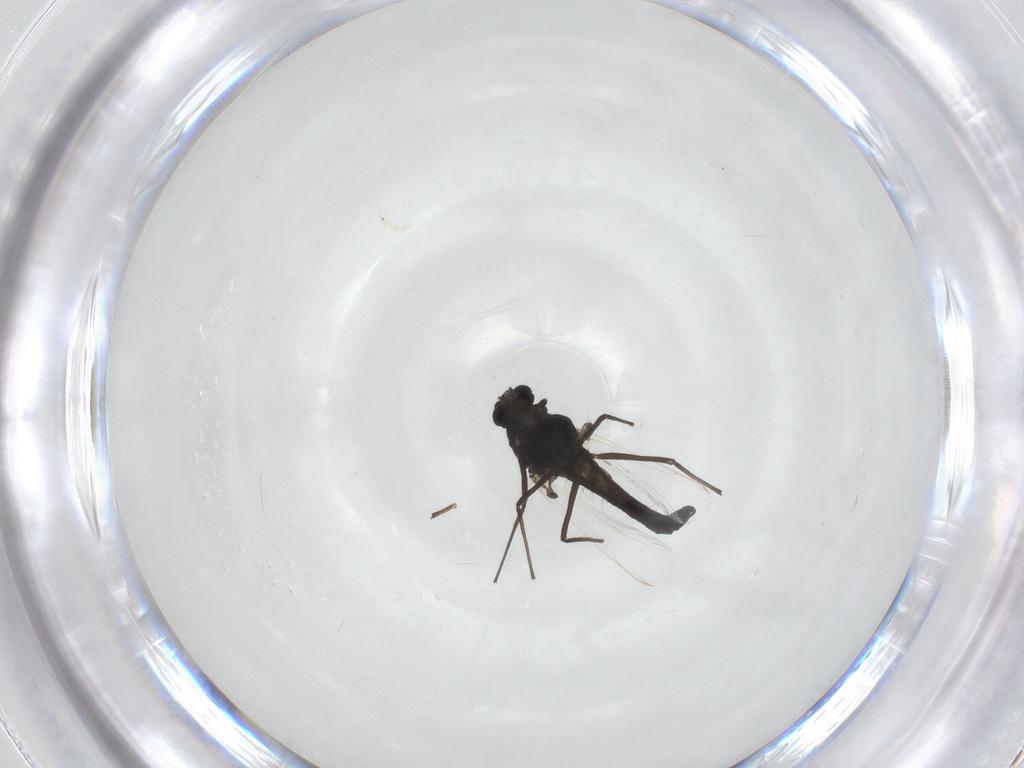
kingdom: Animalia
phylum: Arthropoda
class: Insecta
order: Diptera
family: Chironomidae
